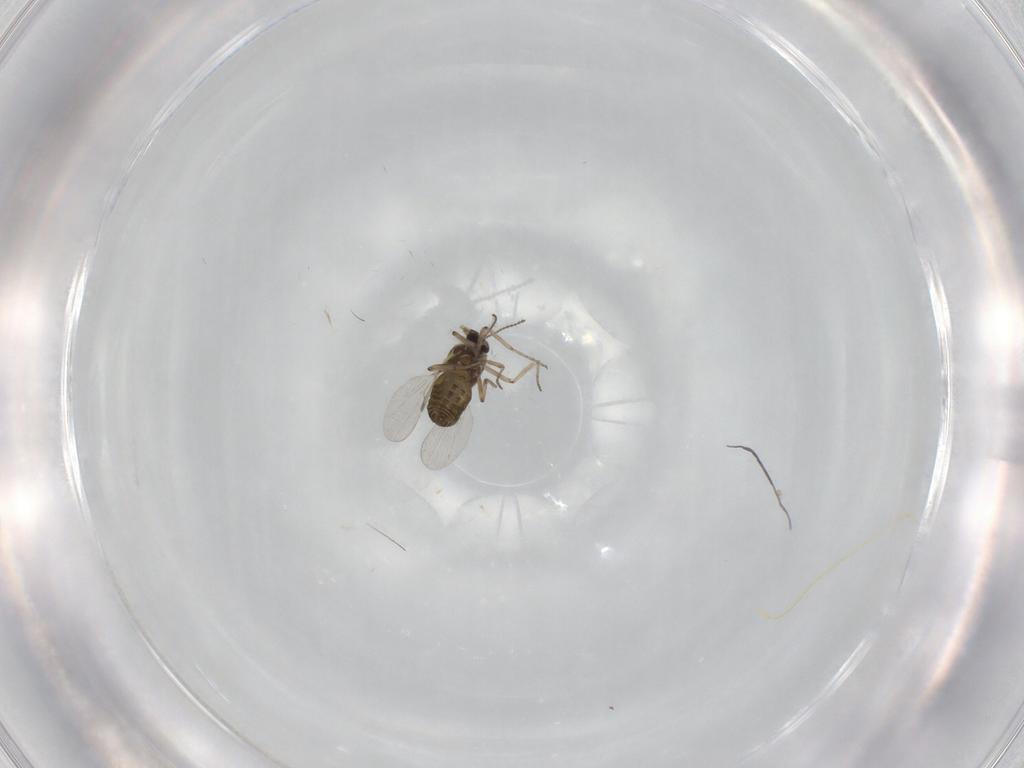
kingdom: Animalia
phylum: Arthropoda
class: Insecta
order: Diptera
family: Ceratopogonidae
